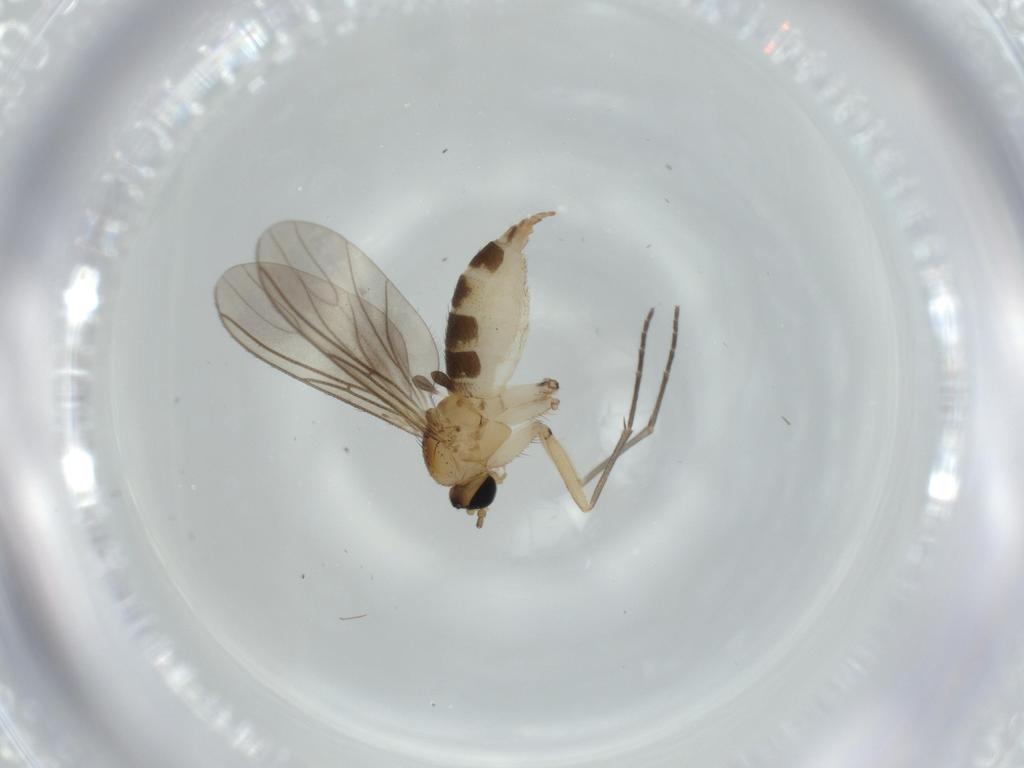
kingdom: Animalia
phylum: Arthropoda
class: Insecta
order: Diptera
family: Sciaridae
